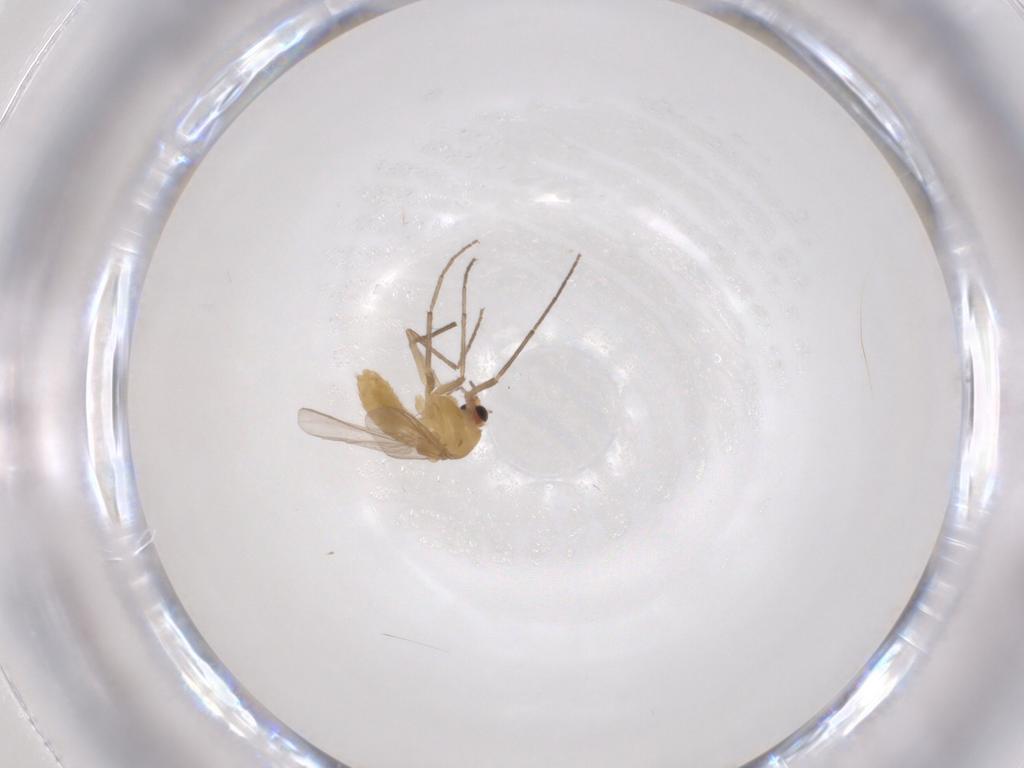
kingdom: Animalia
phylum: Arthropoda
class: Insecta
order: Diptera
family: Chironomidae
